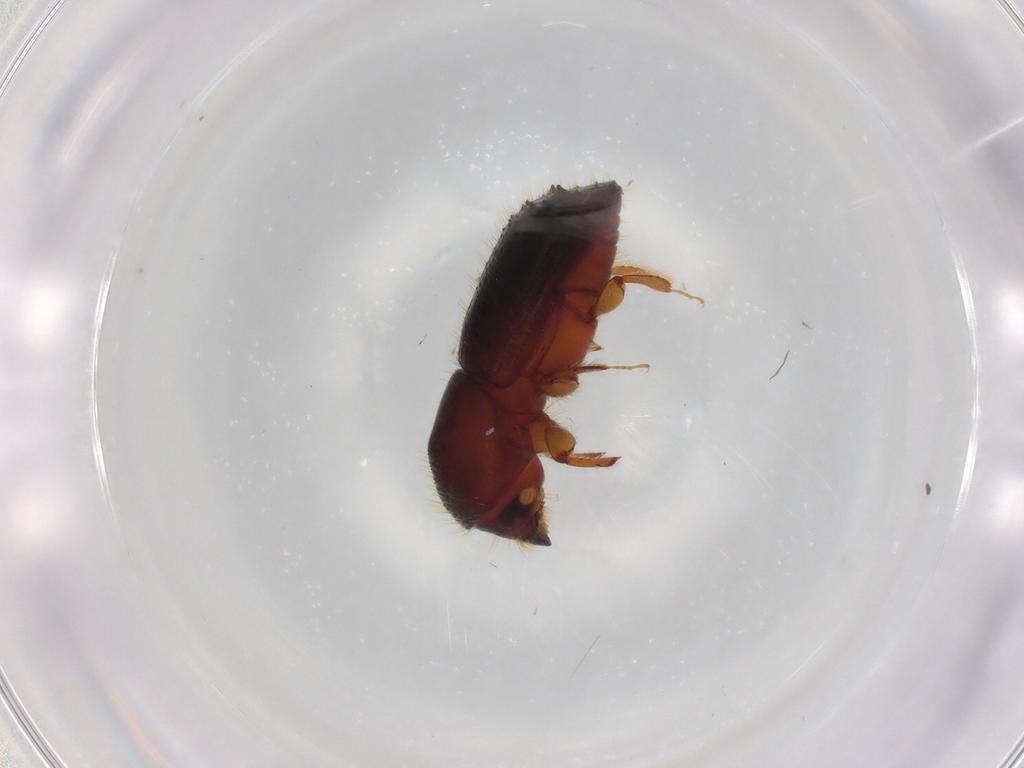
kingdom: Animalia
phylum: Arthropoda
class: Insecta
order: Coleoptera
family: Curculionidae
